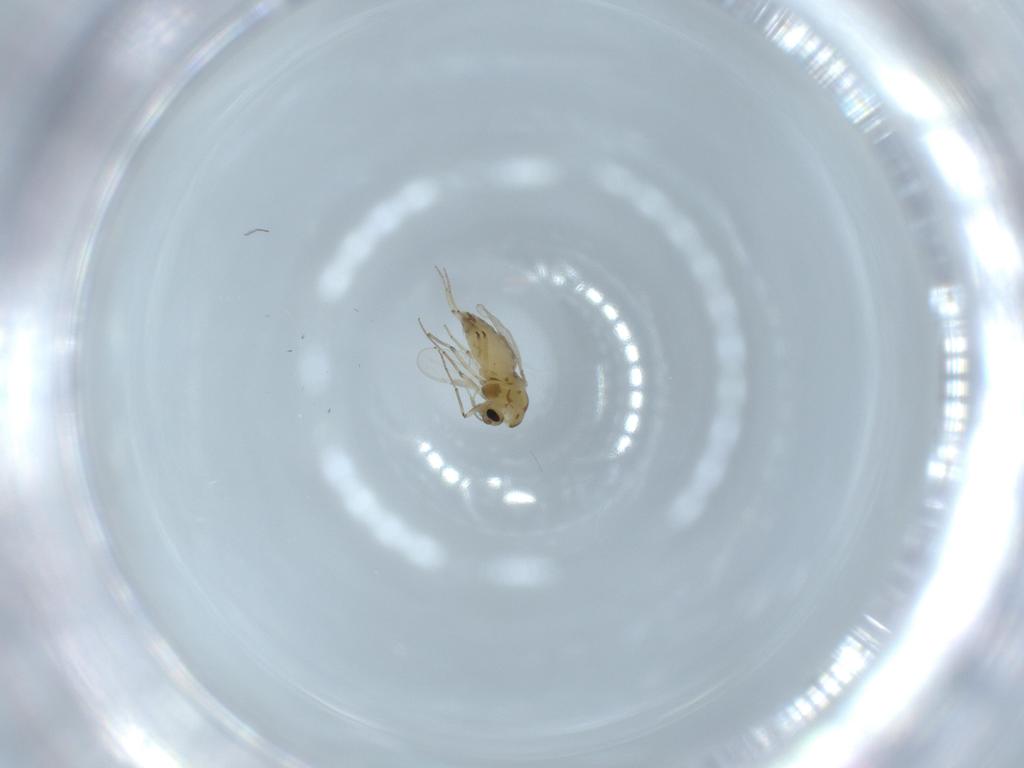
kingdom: Animalia
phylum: Arthropoda
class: Insecta
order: Diptera
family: Chironomidae
